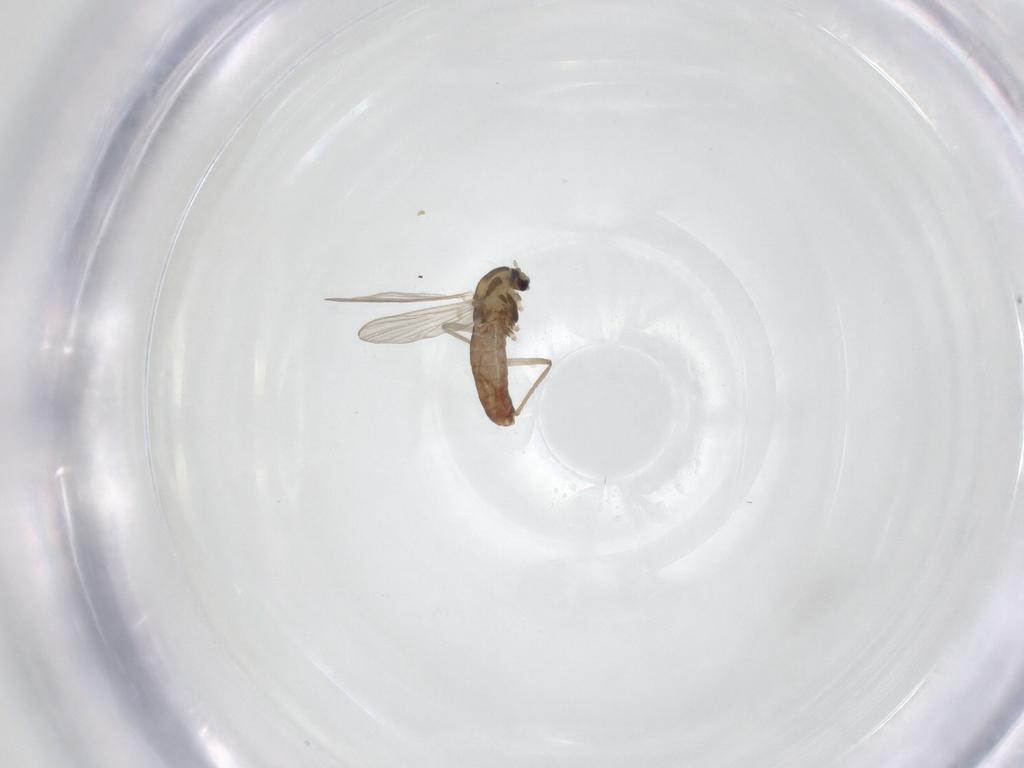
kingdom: Animalia
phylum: Arthropoda
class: Insecta
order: Diptera
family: Chironomidae
